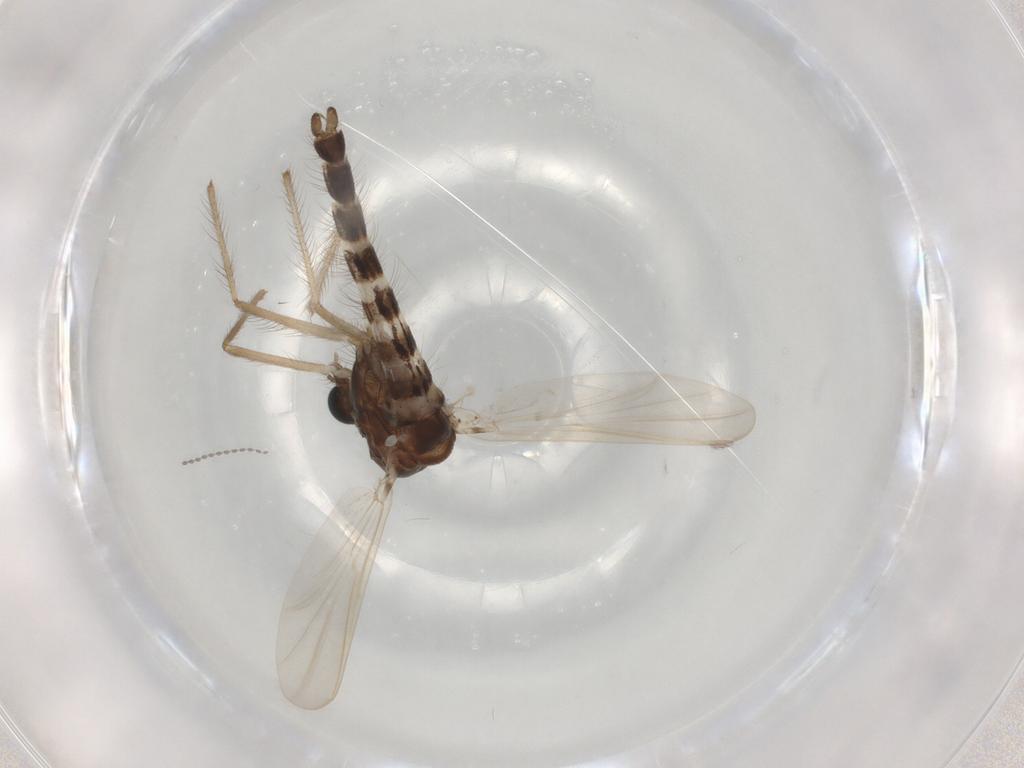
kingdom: Animalia
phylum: Arthropoda
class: Insecta
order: Diptera
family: Chironomidae
